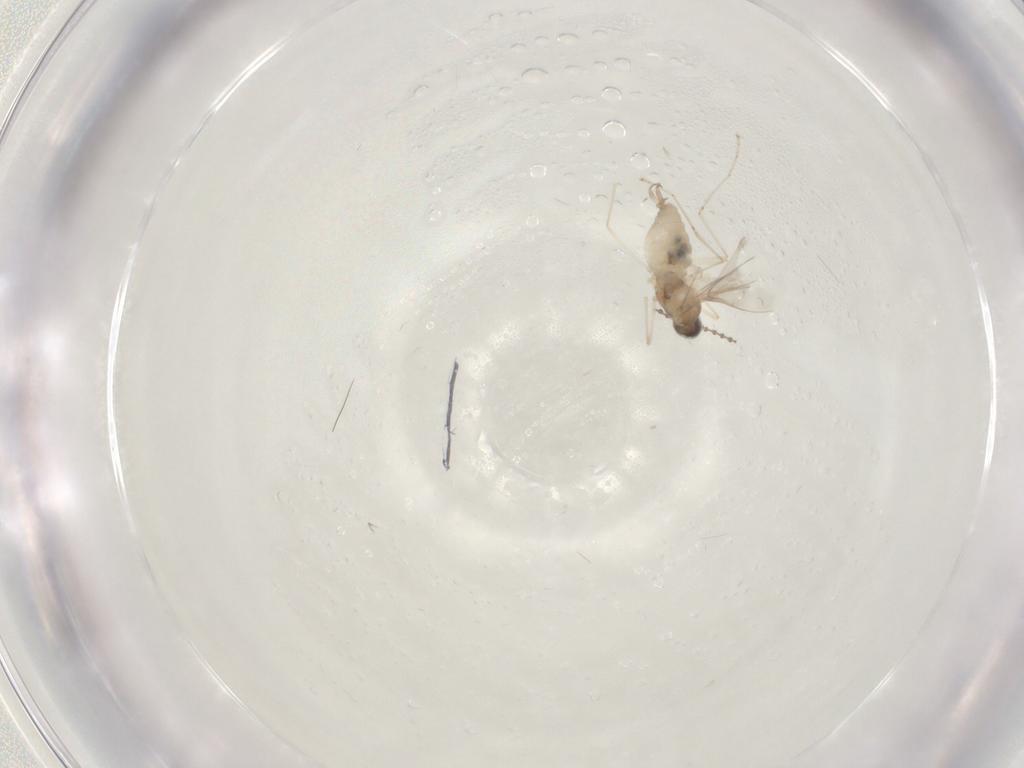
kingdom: Animalia
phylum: Arthropoda
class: Insecta
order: Diptera
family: Cecidomyiidae
